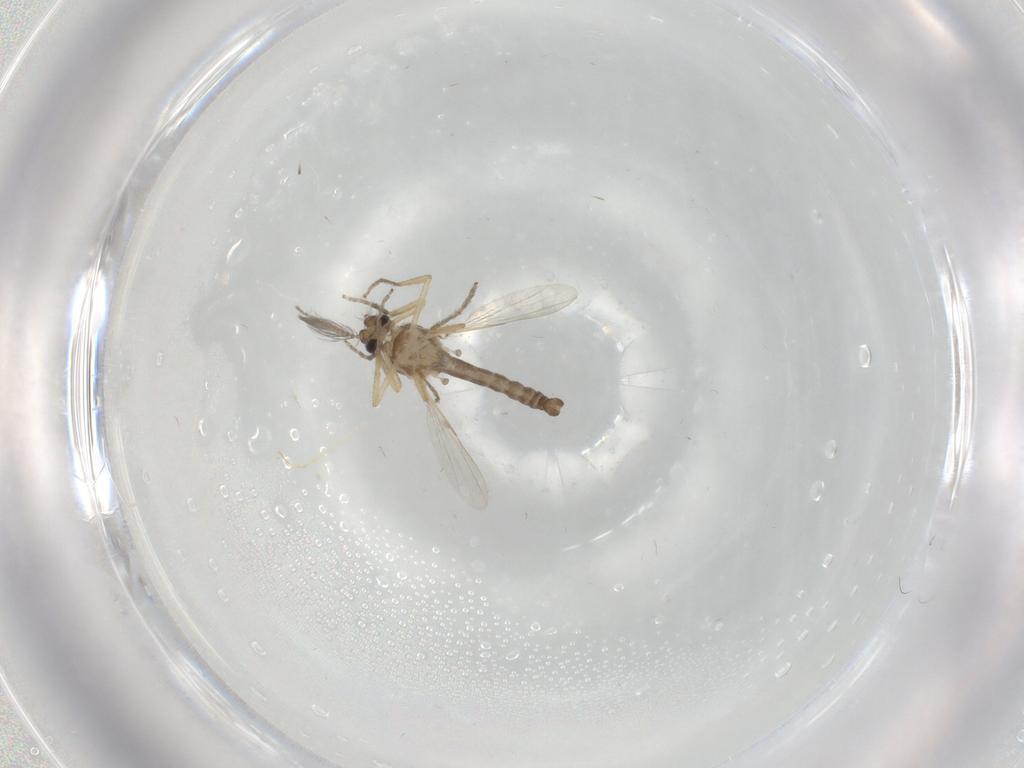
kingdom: Animalia
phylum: Arthropoda
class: Insecta
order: Diptera
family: Ceratopogonidae
